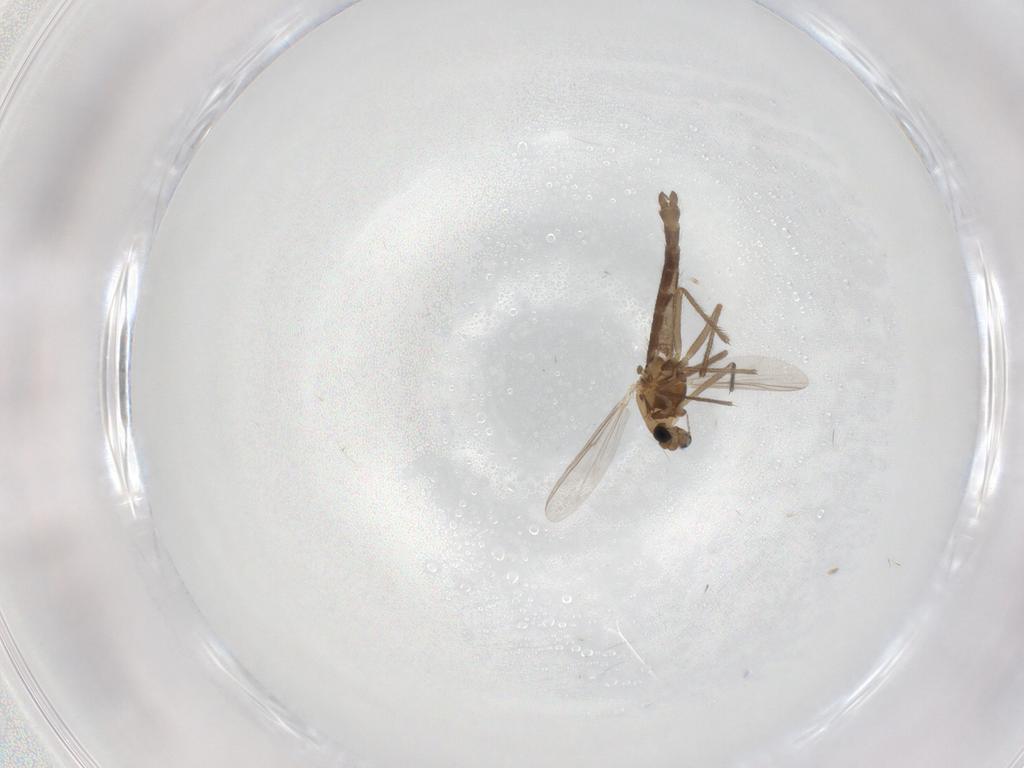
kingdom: Animalia
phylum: Arthropoda
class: Insecta
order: Diptera
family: Chironomidae
